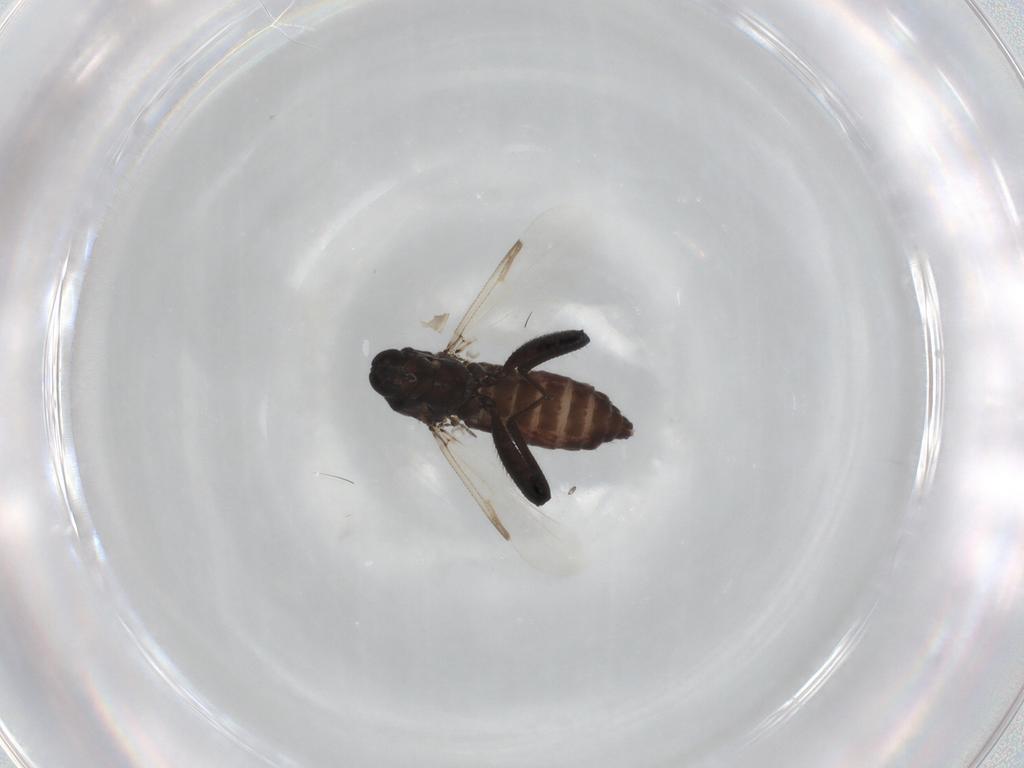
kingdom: Animalia
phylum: Arthropoda
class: Insecta
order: Diptera
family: Ceratopogonidae
